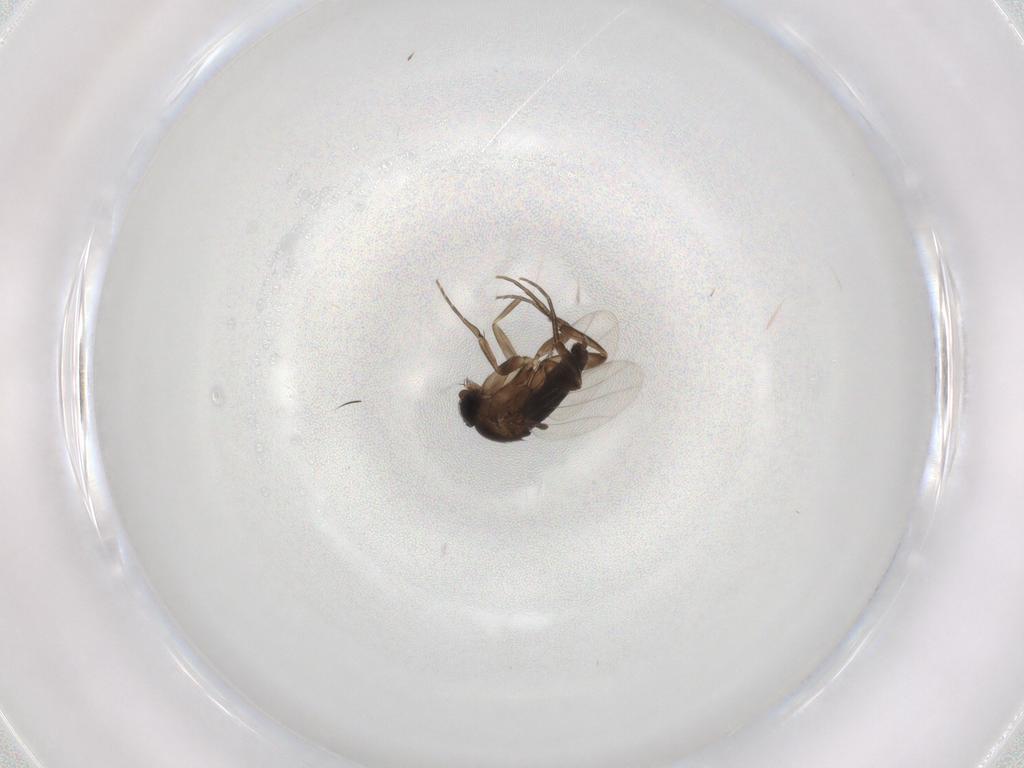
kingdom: Animalia
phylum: Arthropoda
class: Insecta
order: Diptera
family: Phoridae
